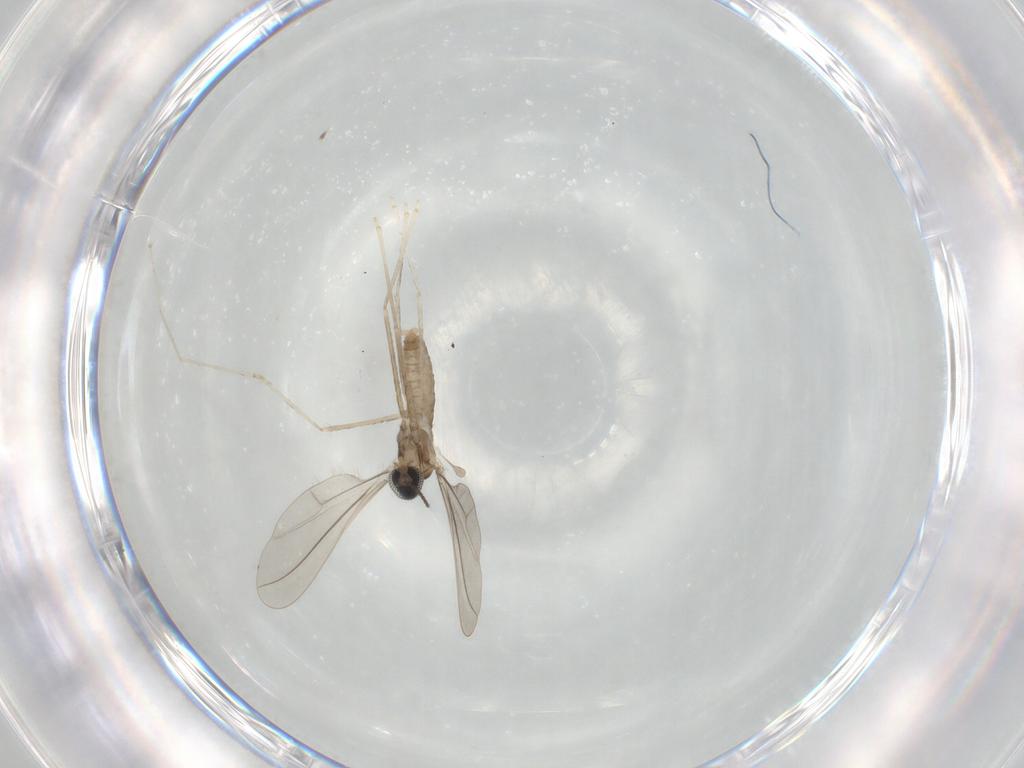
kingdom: Animalia
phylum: Arthropoda
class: Insecta
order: Diptera
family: Cecidomyiidae
